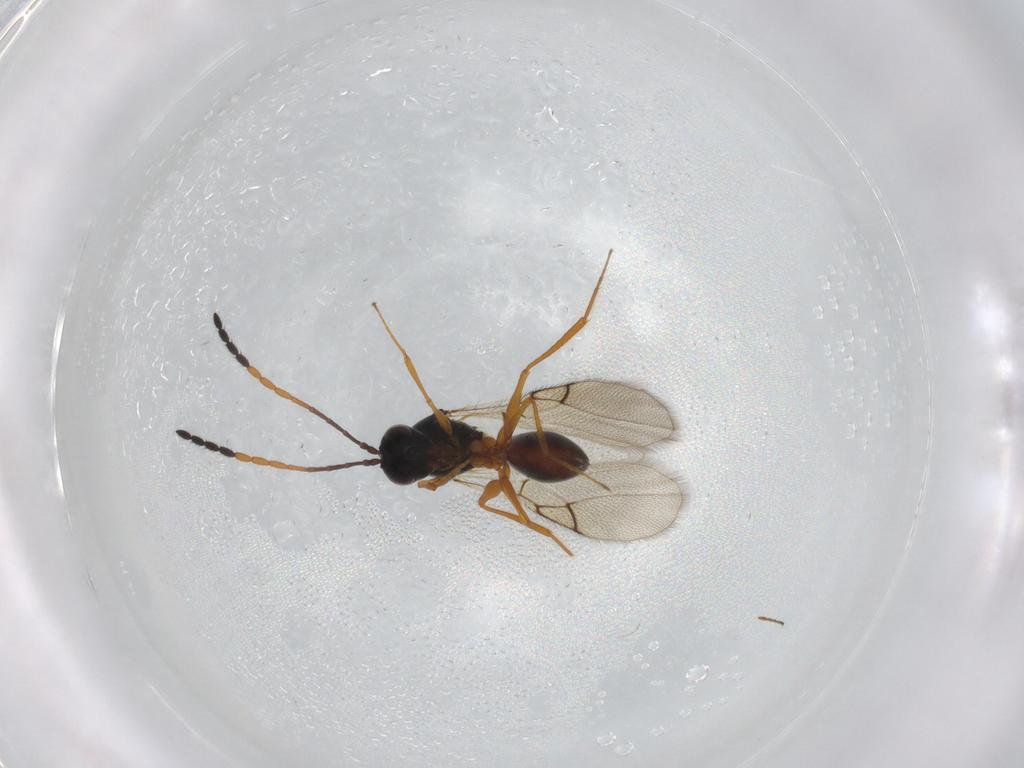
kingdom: Animalia
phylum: Arthropoda
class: Insecta
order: Hymenoptera
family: Figitidae
